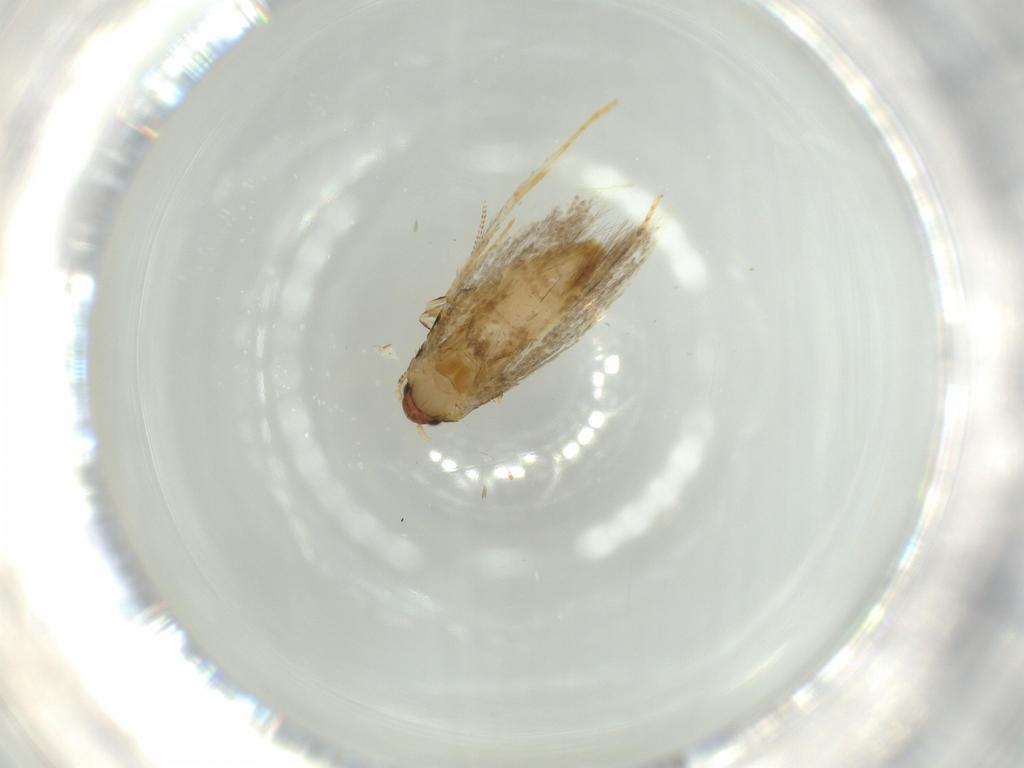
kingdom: Animalia
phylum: Arthropoda
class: Insecta
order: Lepidoptera
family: Tineidae
